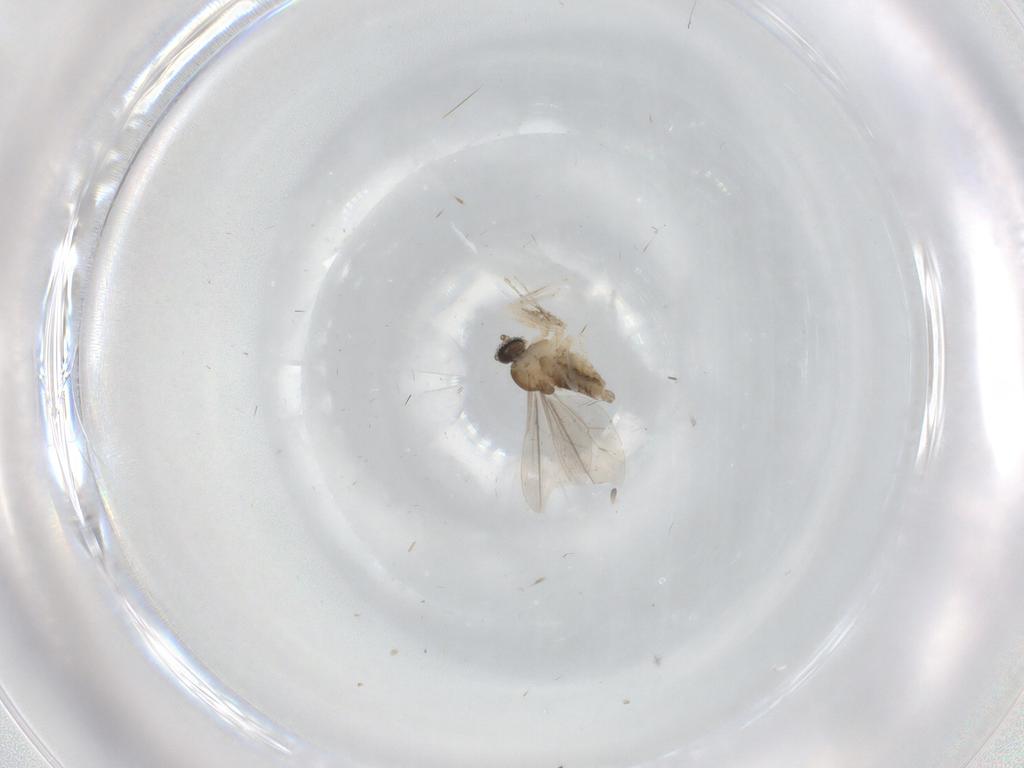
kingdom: Animalia
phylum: Arthropoda
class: Insecta
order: Diptera
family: Cecidomyiidae
